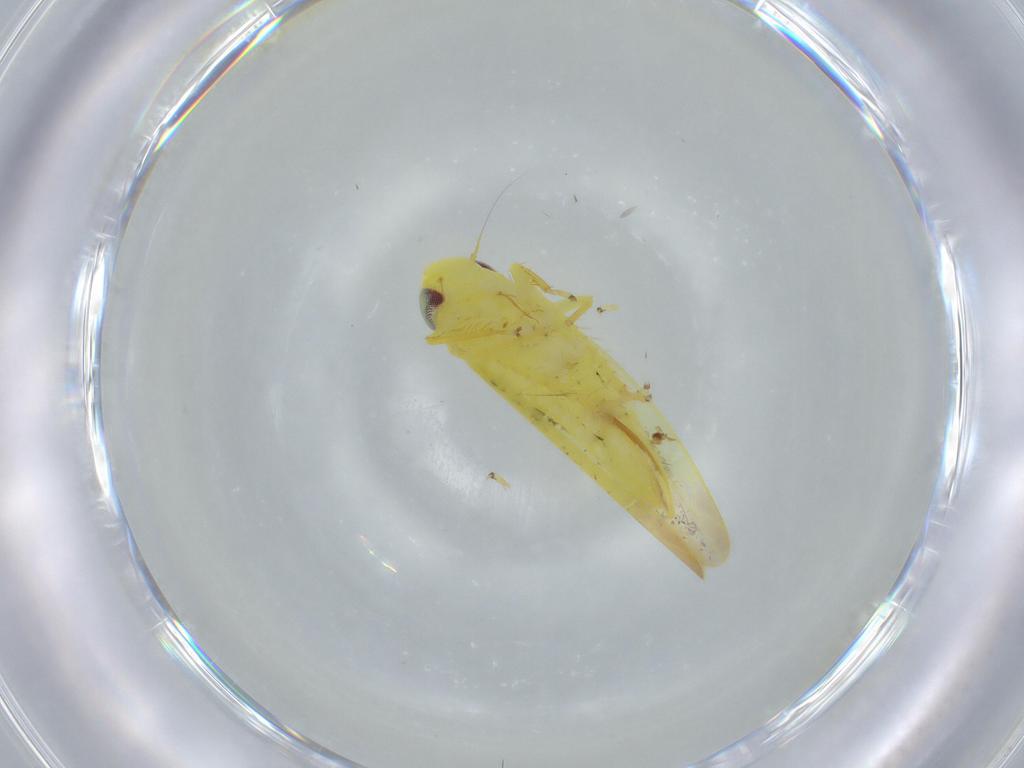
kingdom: Animalia
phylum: Arthropoda
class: Insecta
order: Hemiptera
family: Cicadellidae
